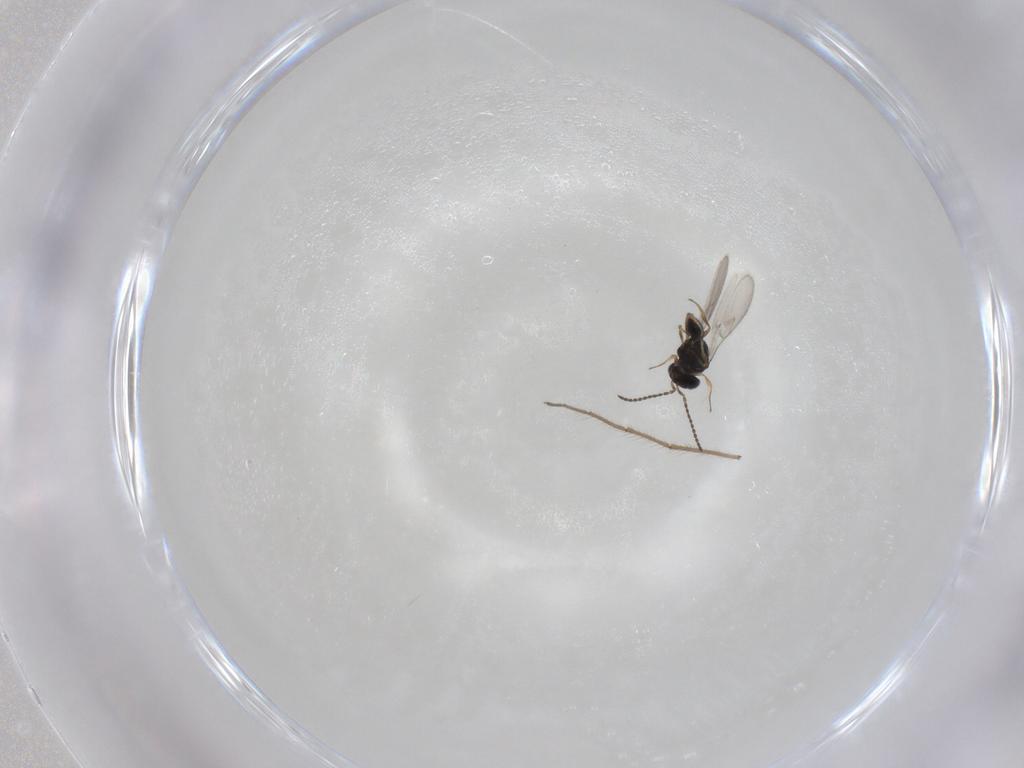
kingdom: Animalia
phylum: Arthropoda
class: Insecta
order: Hymenoptera
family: Scelionidae
